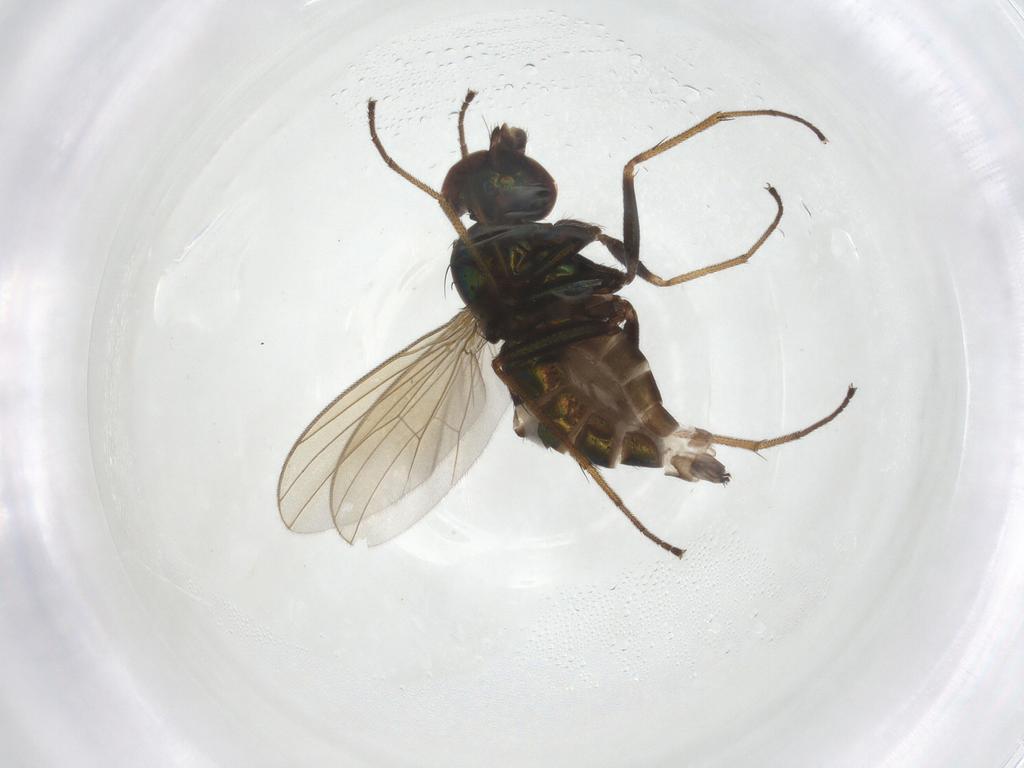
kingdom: Animalia
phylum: Arthropoda
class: Insecta
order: Diptera
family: Dolichopodidae
